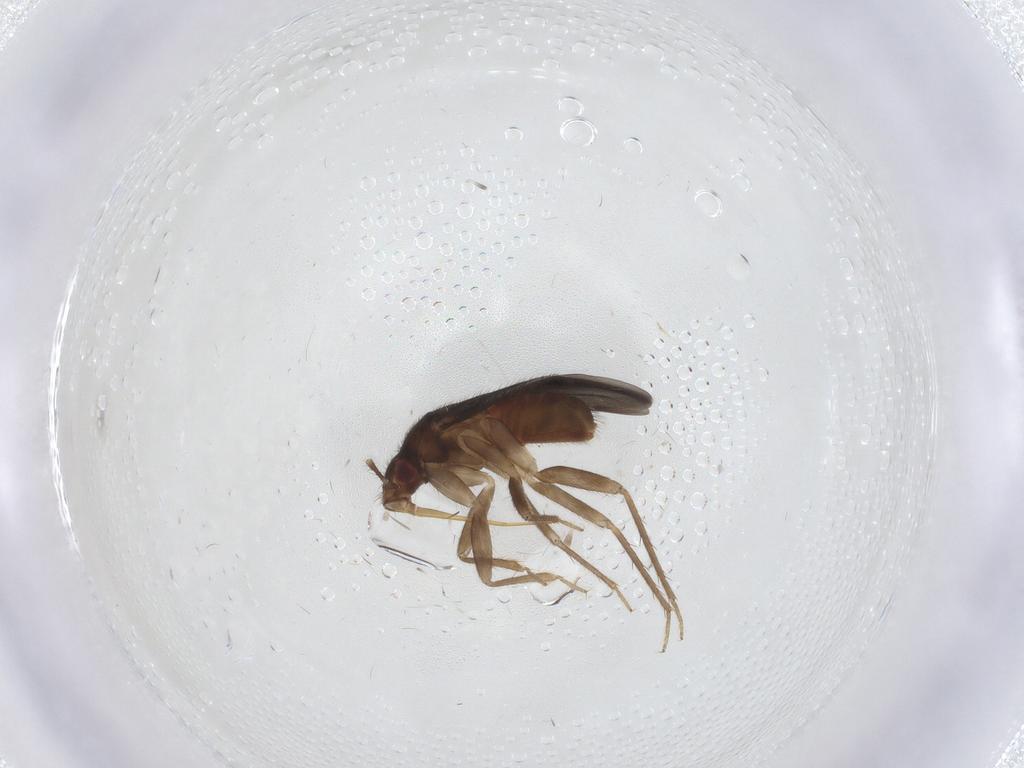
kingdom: Animalia
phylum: Arthropoda
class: Insecta
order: Hemiptera
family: Ceratocombidae
